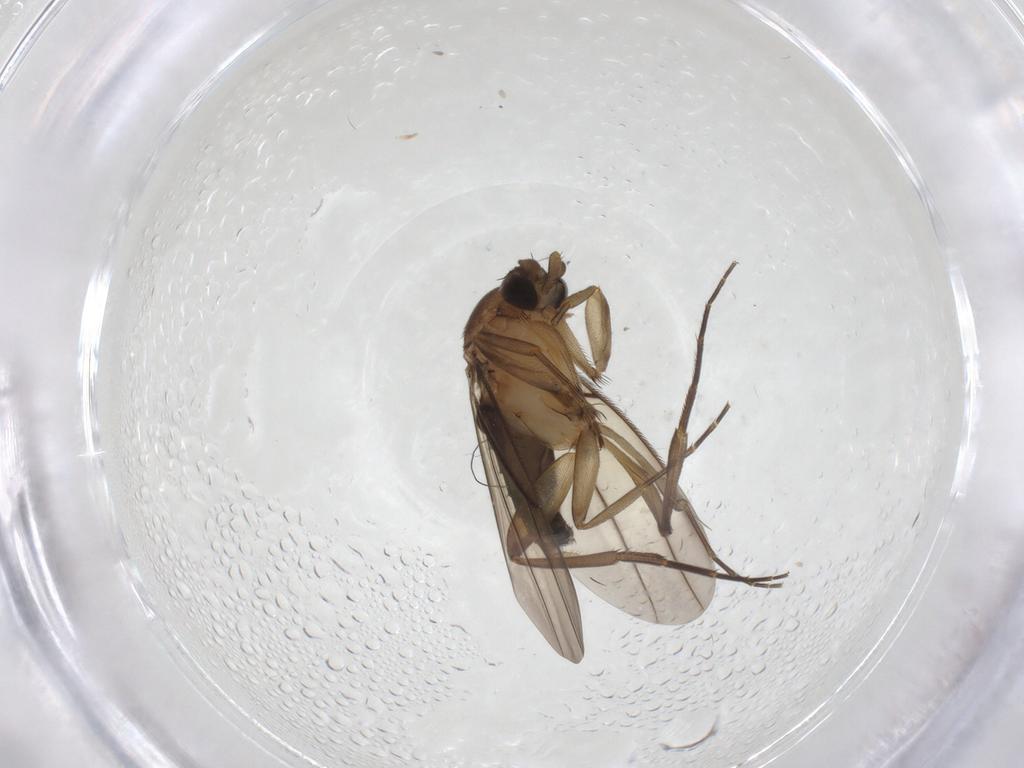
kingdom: Animalia
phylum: Arthropoda
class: Insecta
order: Diptera
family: Phoridae
